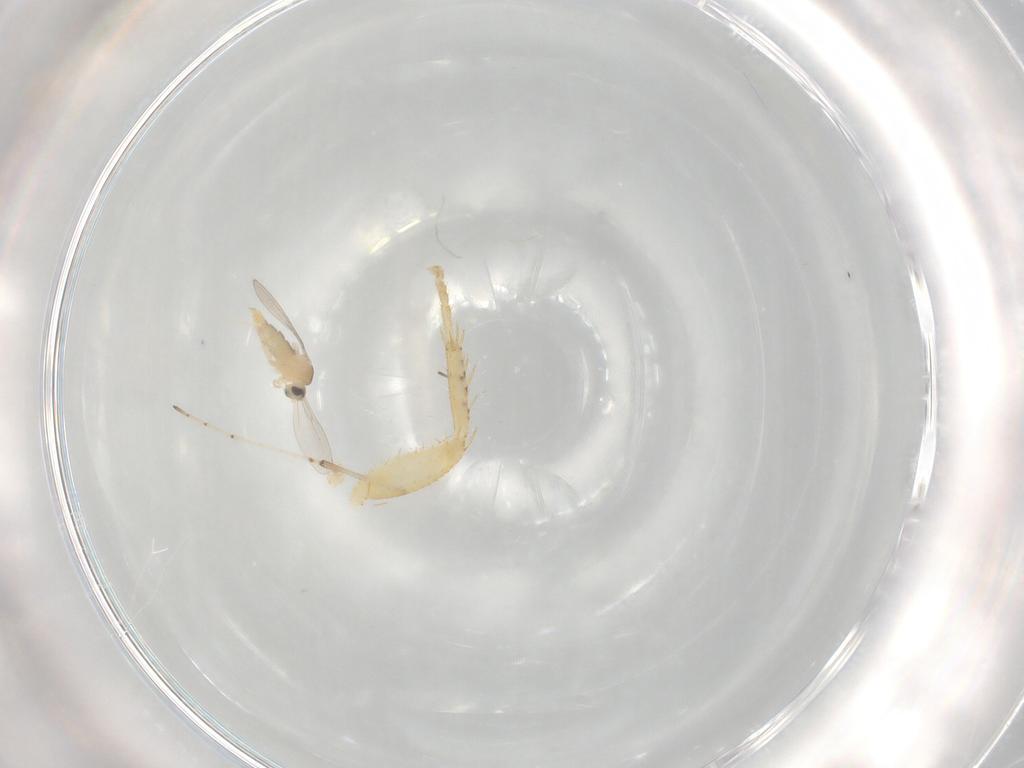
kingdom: Animalia
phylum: Arthropoda
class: Insecta
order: Diptera
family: Cecidomyiidae
